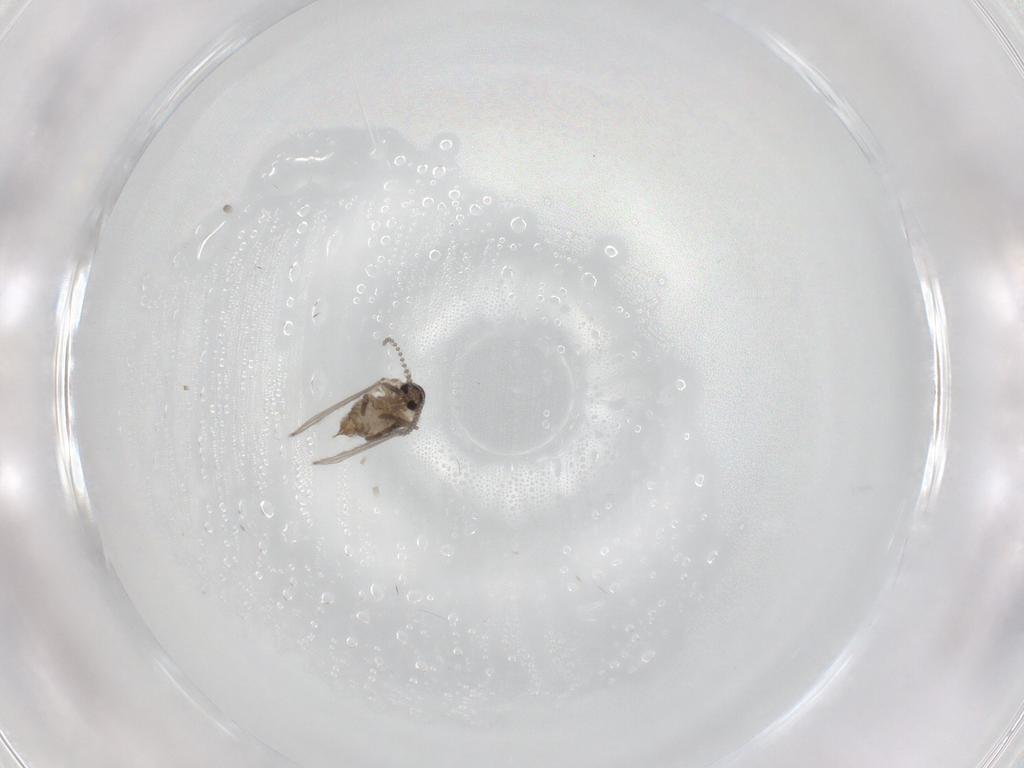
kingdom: Animalia
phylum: Arthropoda
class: Insecta
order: Diptera
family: Psychodidae
